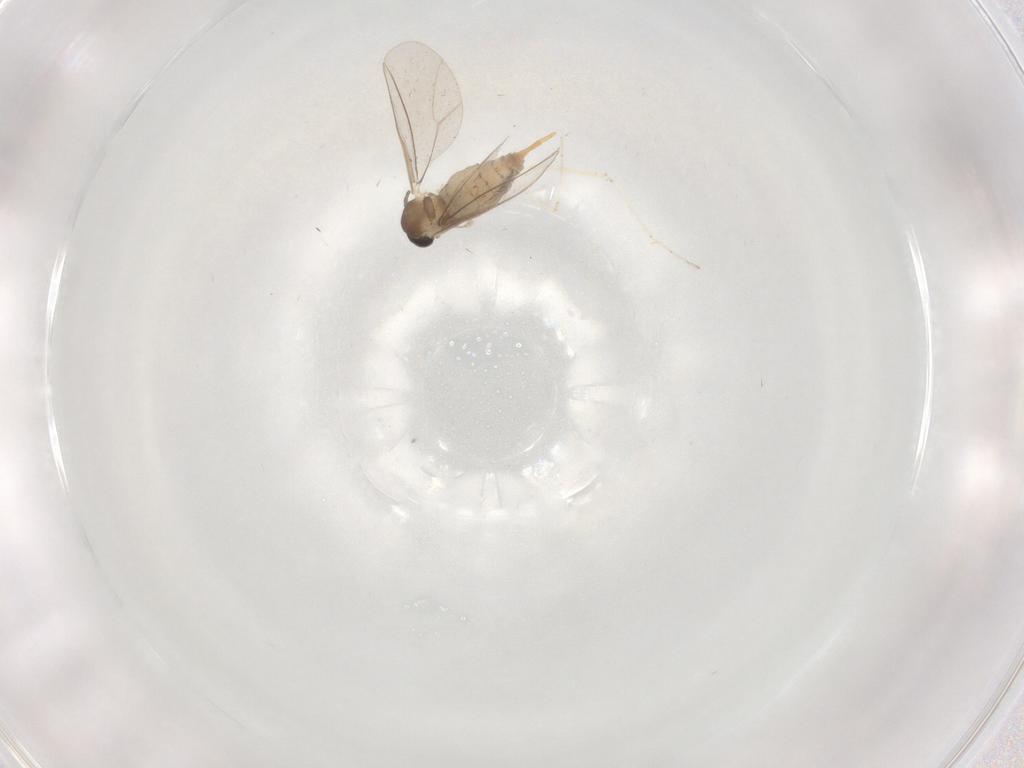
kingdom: Animalia
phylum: Arthropoda
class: Insecta
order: Diptera
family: Cecidomyiidae
